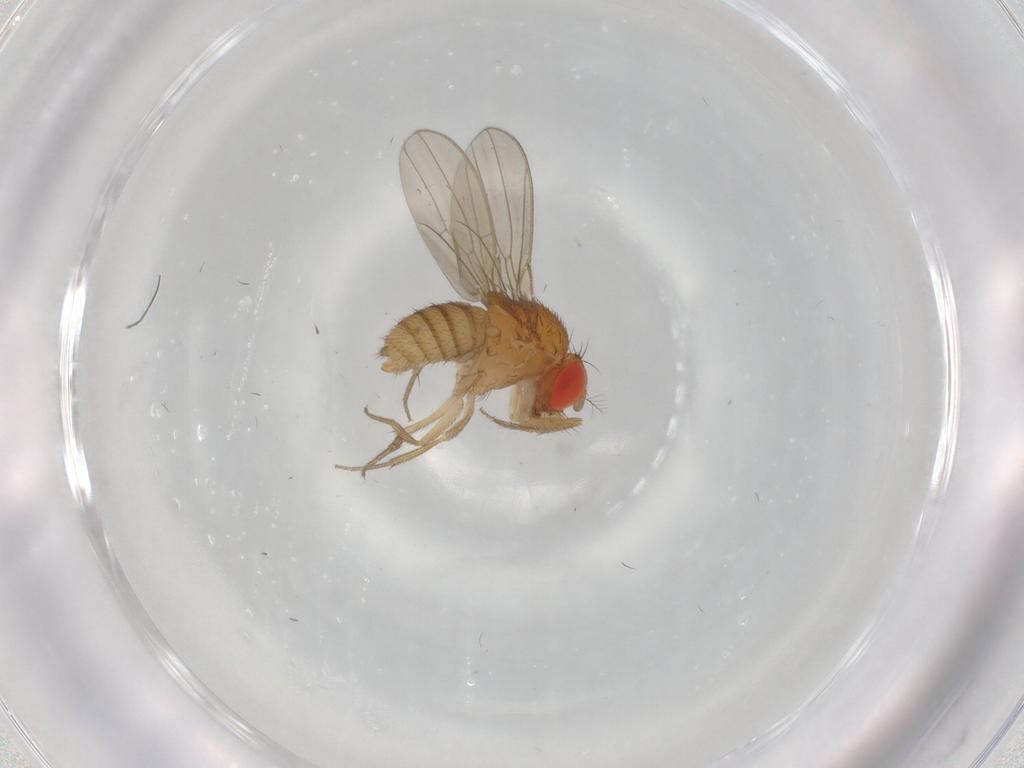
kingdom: Animalia
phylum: Arthropoda
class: Insecta
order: Diptera
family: Drosophilidae
